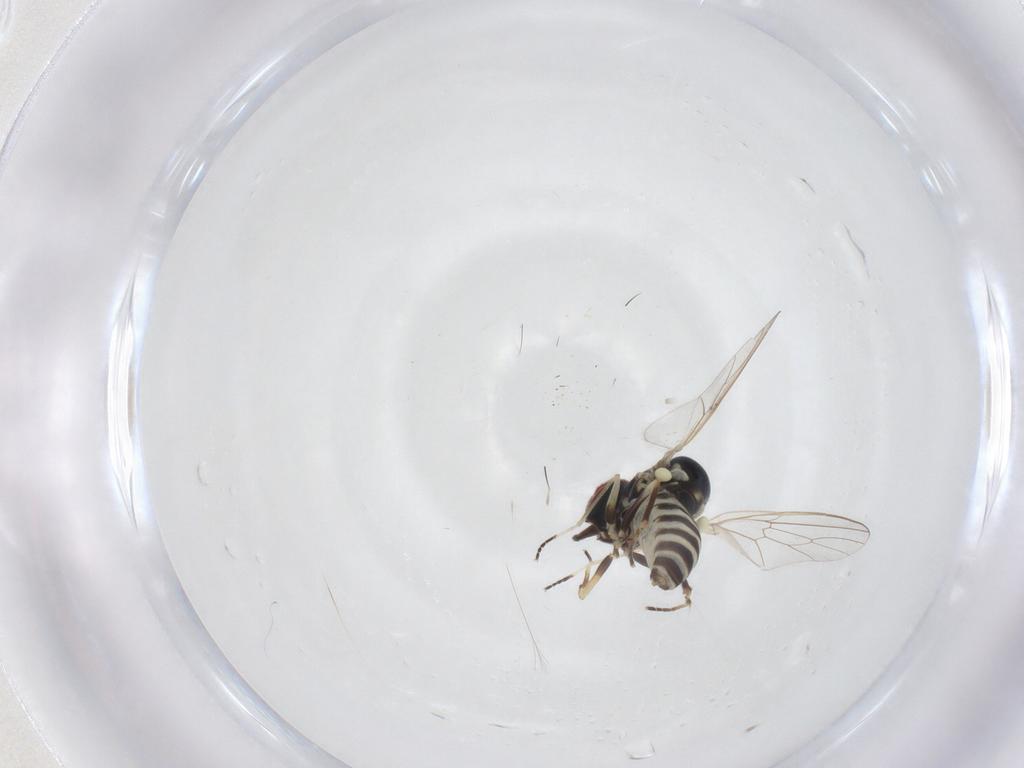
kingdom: Animalia
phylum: Arthropoda
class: Insecta
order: Diptera
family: Bombyliidae
